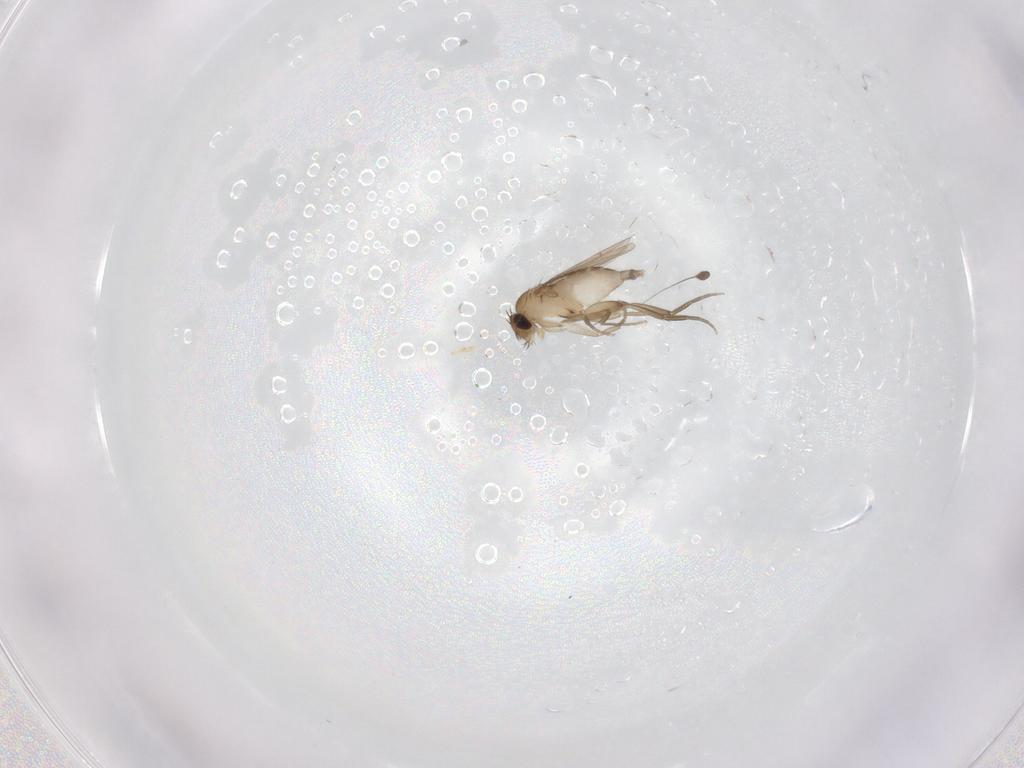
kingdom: Animalia
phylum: Arthropoda
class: Insecta
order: Diptera
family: Phoridae
